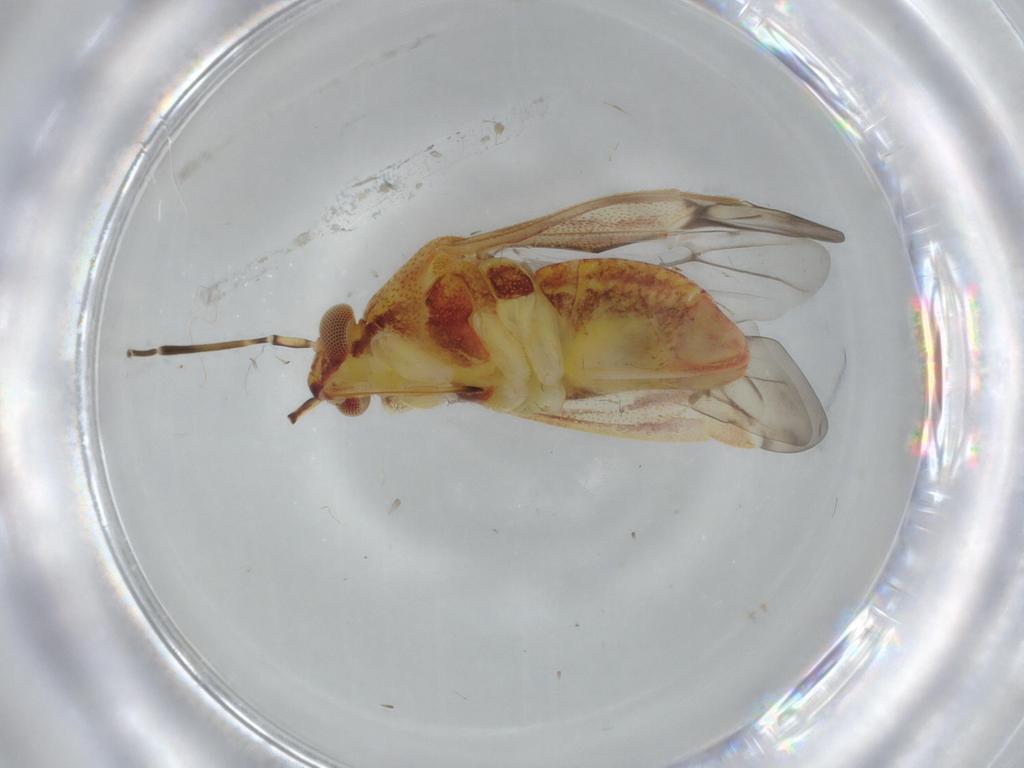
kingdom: Animalia
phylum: Arthropoda
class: Insecta
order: Hemiptera
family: Miridae
